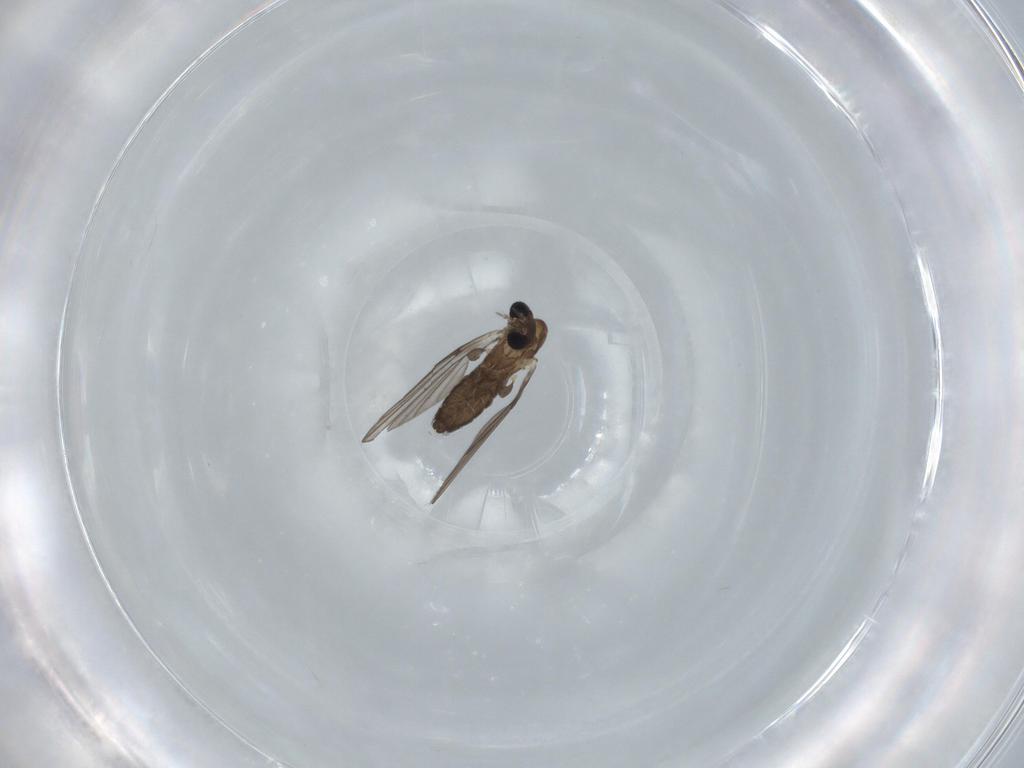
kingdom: Animalia
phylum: Arthropoda
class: Insecta
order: Diptera
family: Psychodidae
